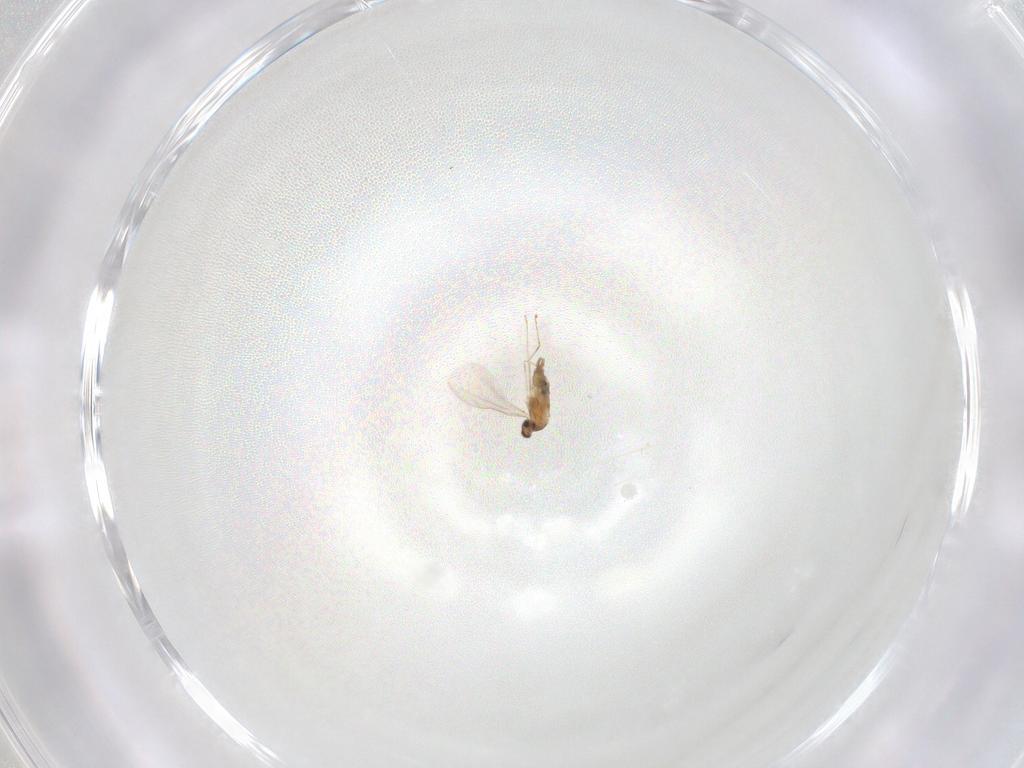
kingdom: Animalia
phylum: Arthropoda
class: Insecta
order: Diptera
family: Cecidomyiidae
